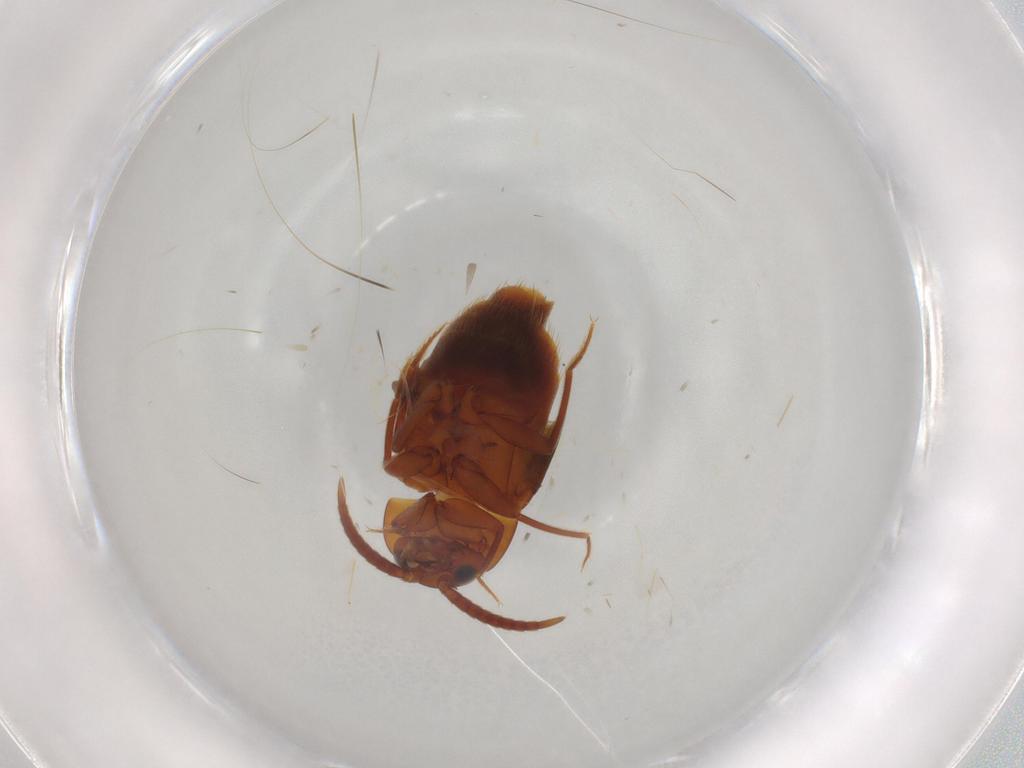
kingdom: Animalia
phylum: Arthropoda
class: Insecta
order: Coleoptera
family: Staphylinidae
